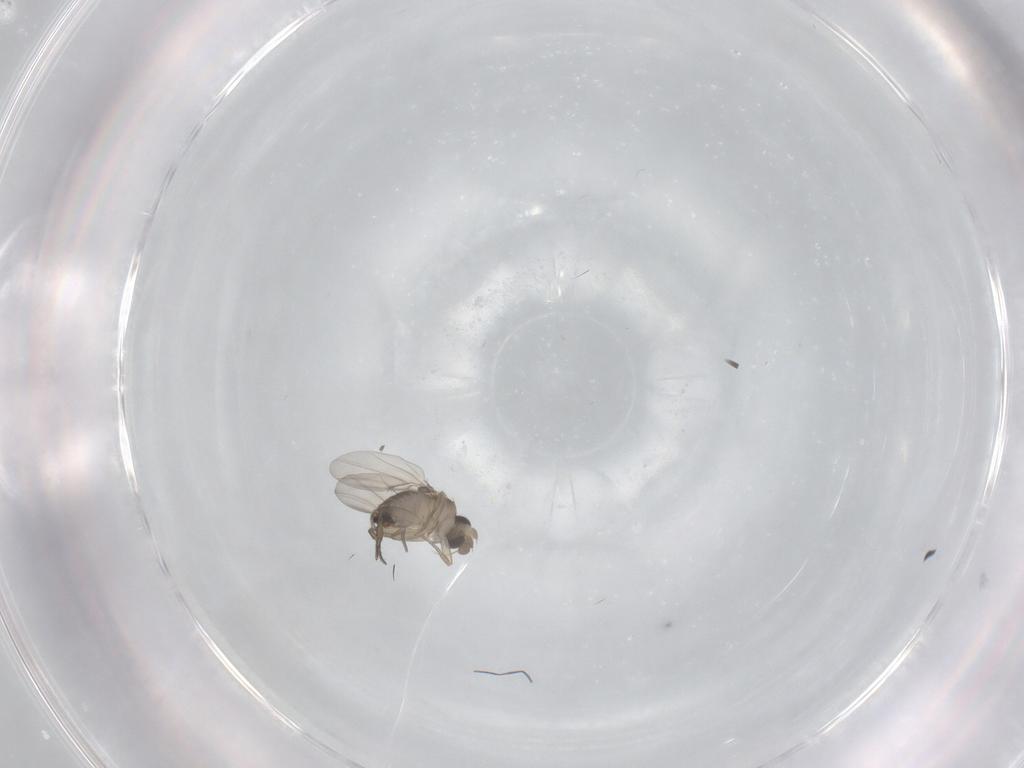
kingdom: Animalia
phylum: Arthropoda
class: Insecta
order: Diptera
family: Phoridae
